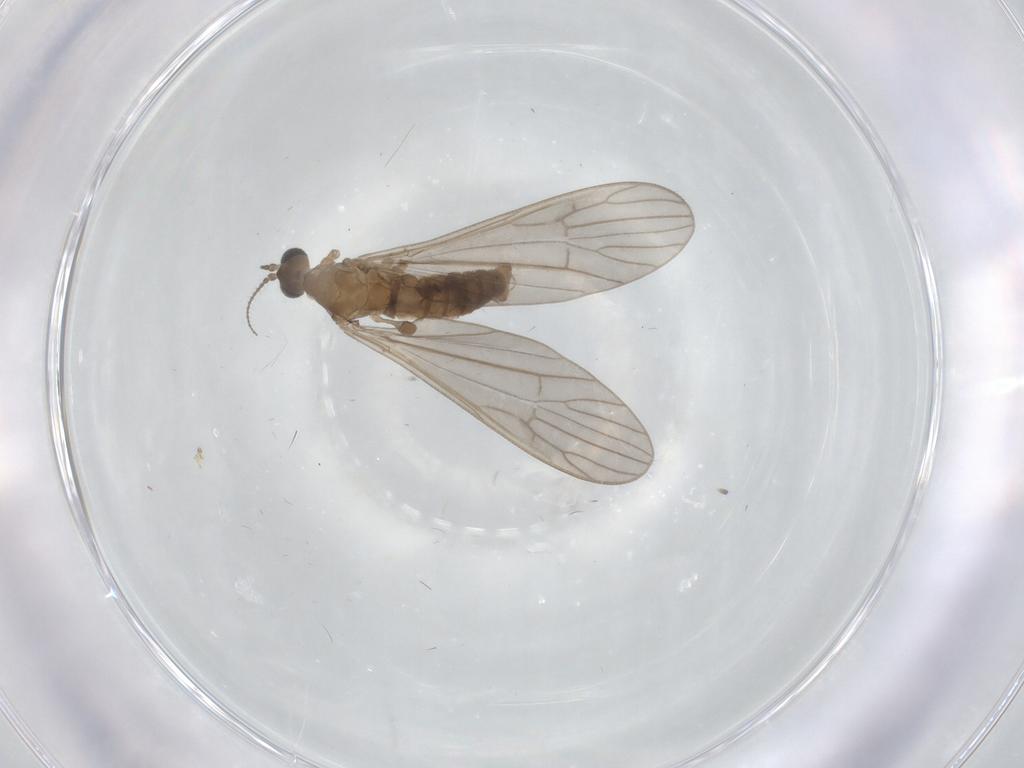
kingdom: Animalia
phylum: Arthropoda
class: Insecta
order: Diptera
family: Limoniidae
